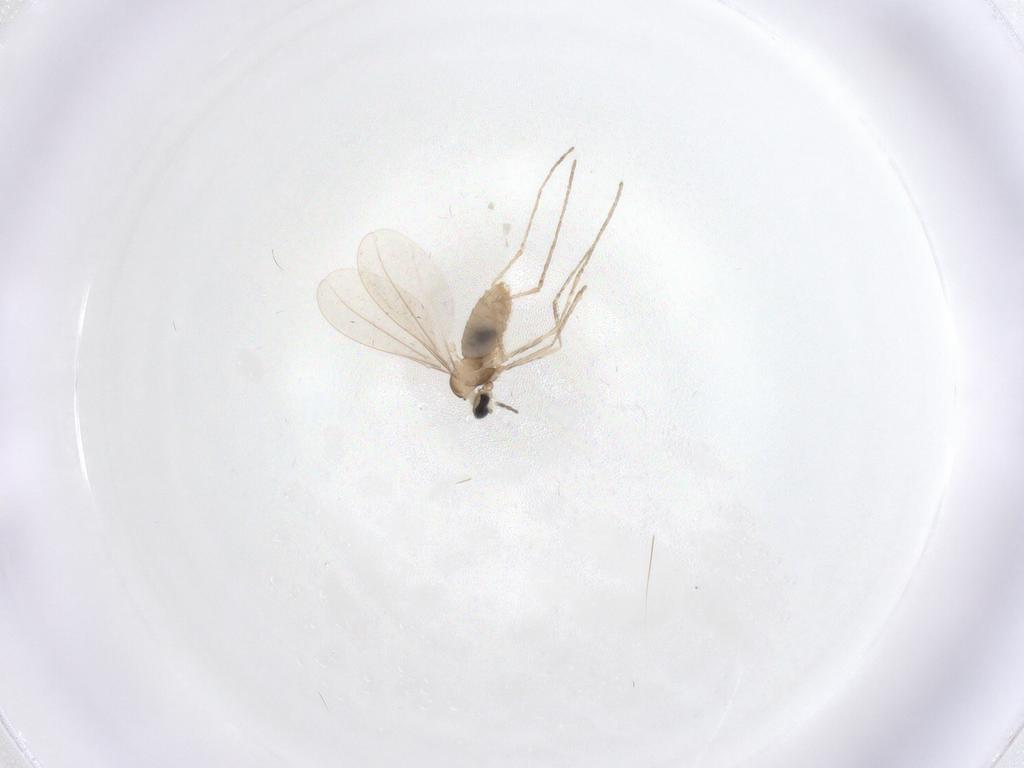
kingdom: Animalia
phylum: Arthropoda
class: Insecta
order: Diptera
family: Cecidomyiidae
